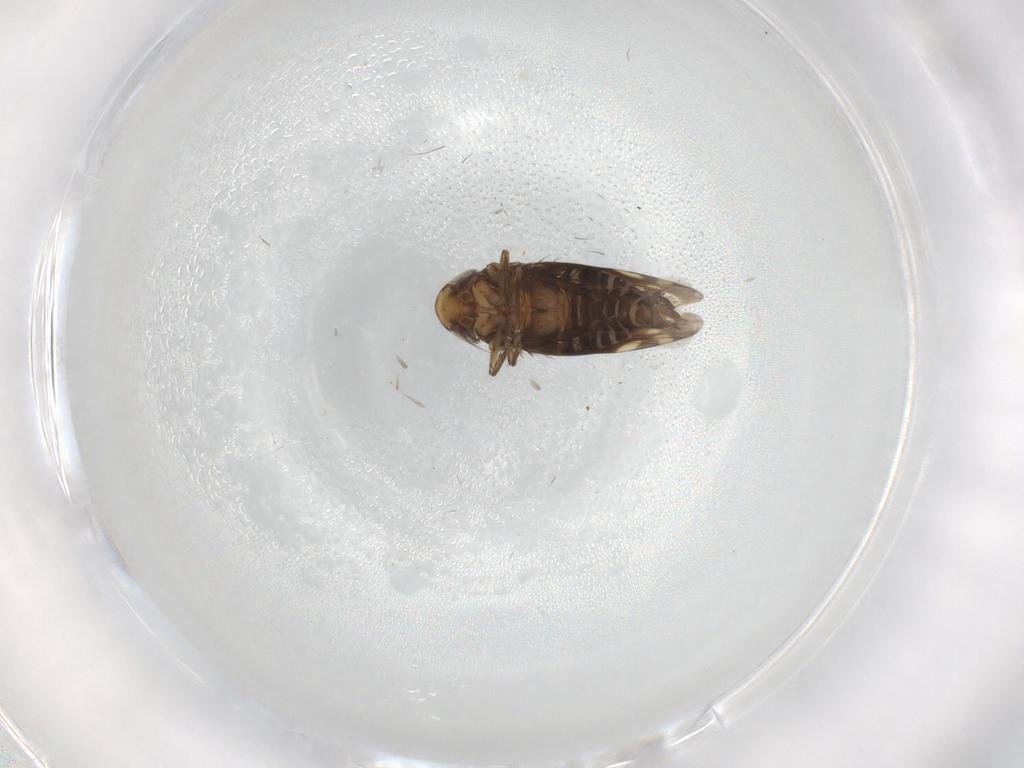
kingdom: Animalia
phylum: Arthropoda
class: Insecta
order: Hemiptera
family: Cicadellidae
